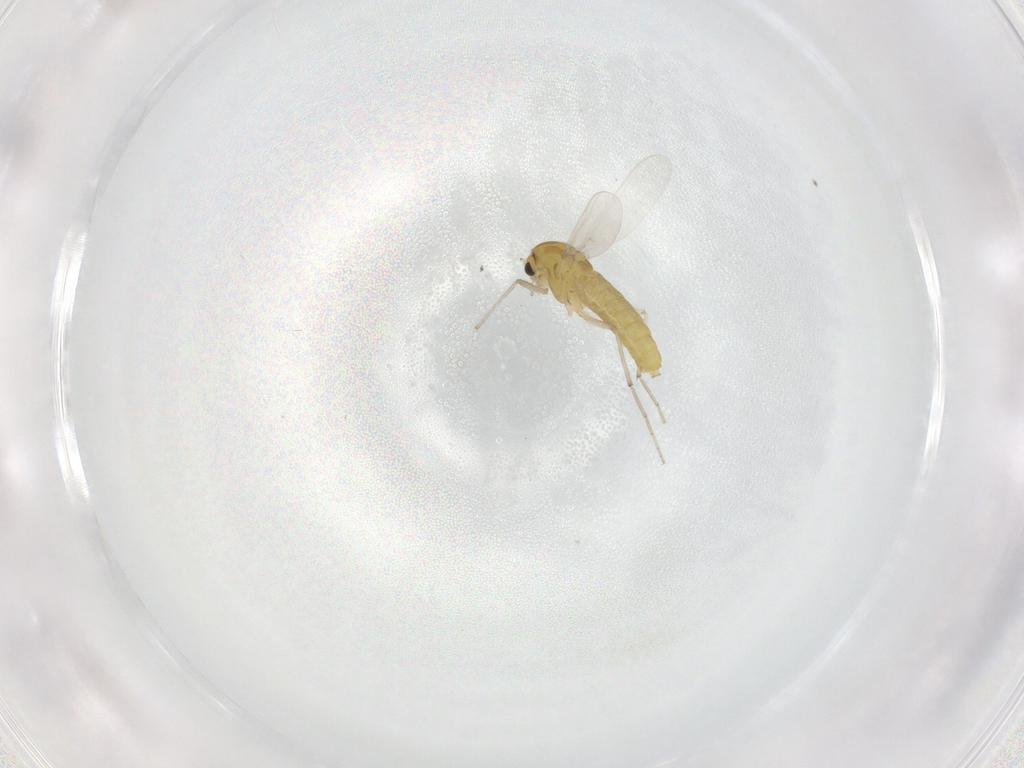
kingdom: Animalia
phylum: Arthropoda
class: Insecta
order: Diptera
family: Chironomidae
